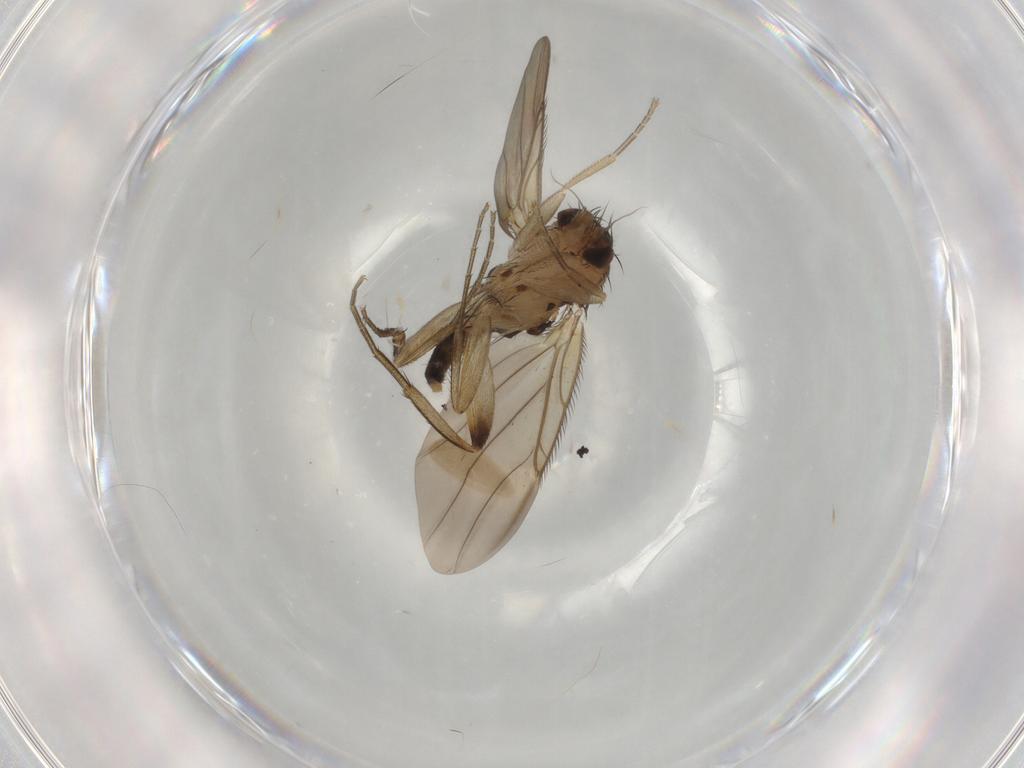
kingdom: Animalia
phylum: Arthropoda
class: Insecta
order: Diptera
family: Phoridae
